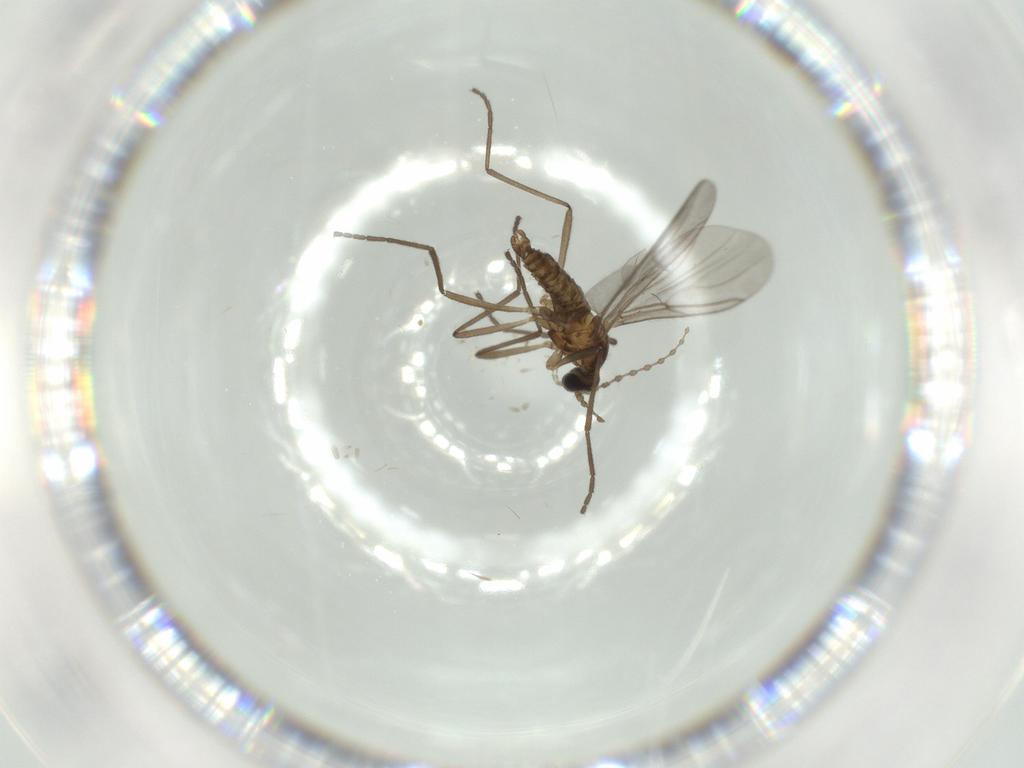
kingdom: Animalia
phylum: Arthropoda
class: Insecta
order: Diptera
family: Cecidomyiidae
